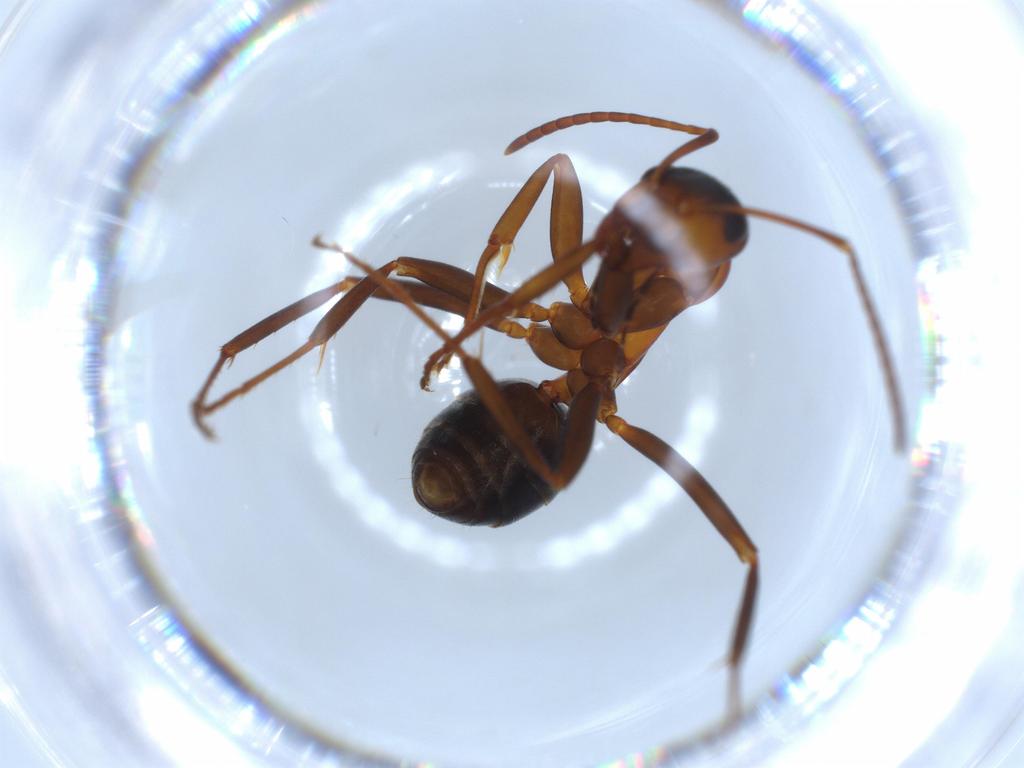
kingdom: Animalia
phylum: Arthropoda
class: Insecta
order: Hymenoptera
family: Formicidae
